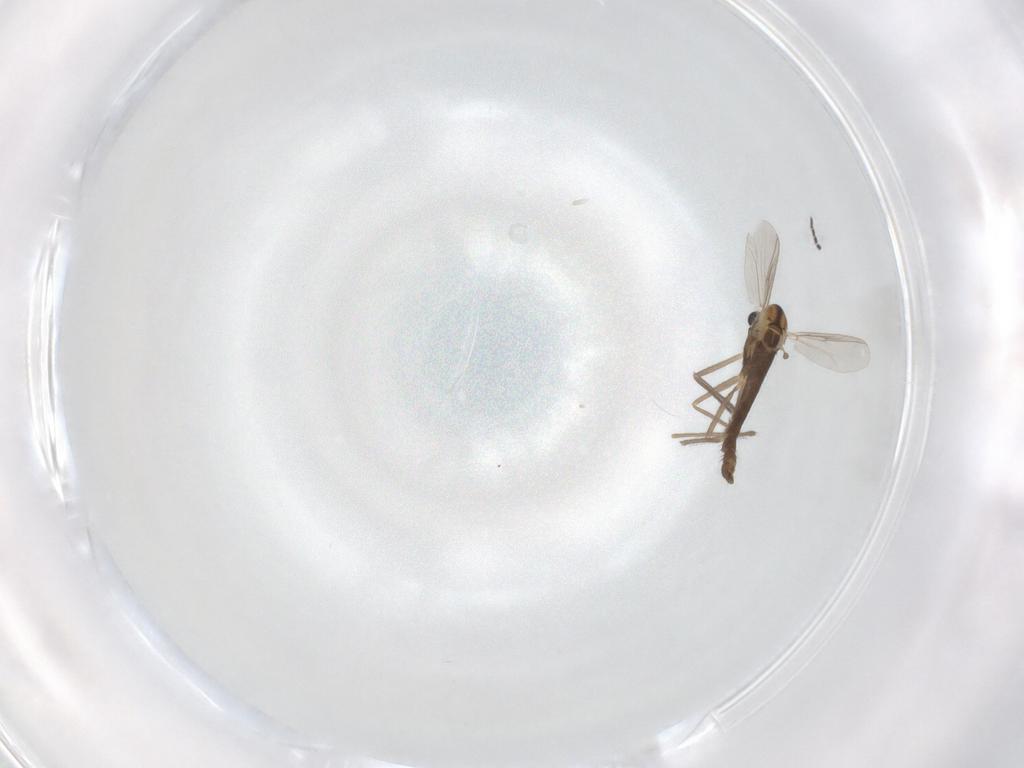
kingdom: Animalia
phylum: Arthropoda
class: Insecta
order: Diptera
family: Chironomidae
